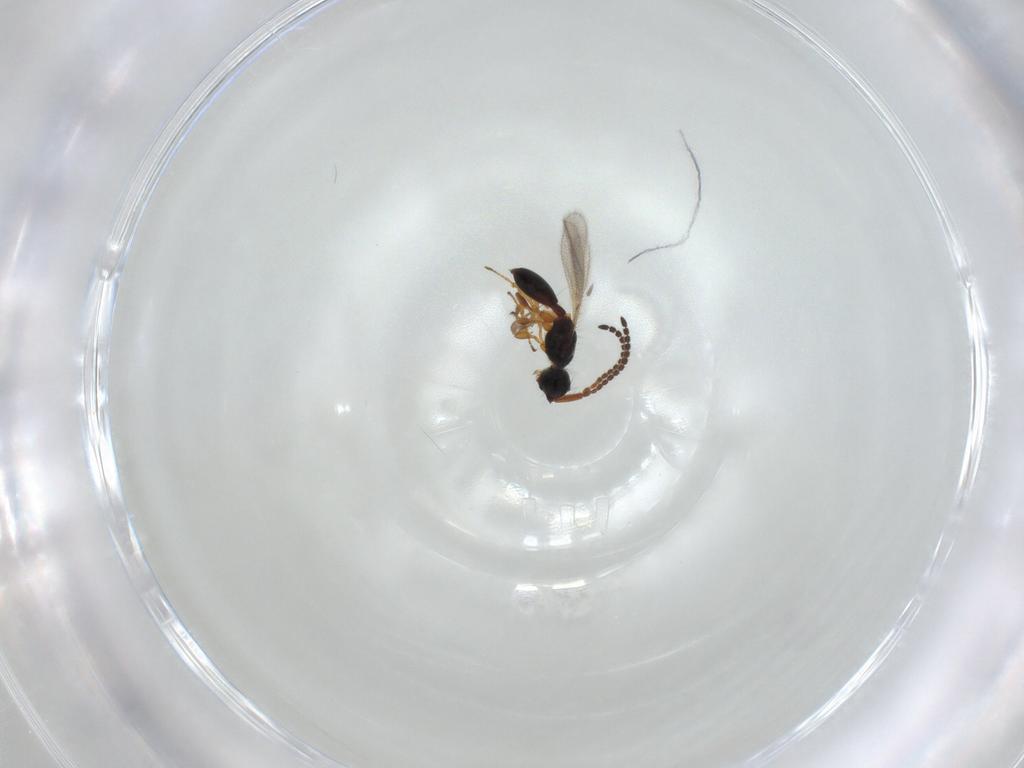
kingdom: Animalia
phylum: Arthropoda
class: Insecta
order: Hymenoptera
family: Diapriidae
